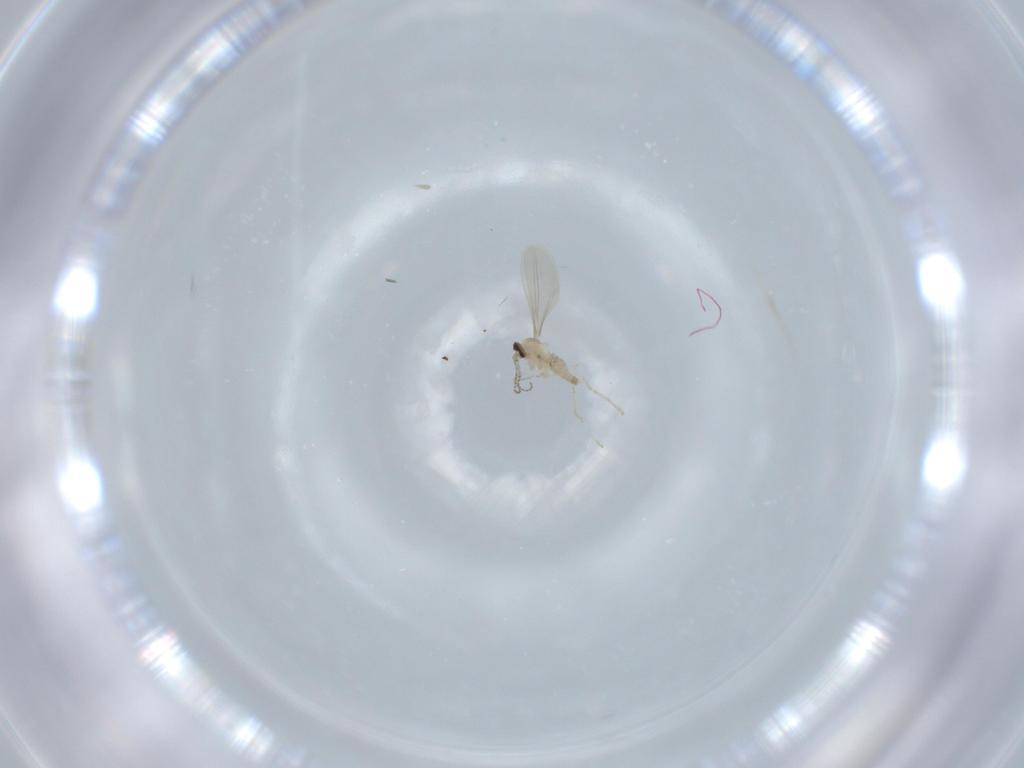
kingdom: Animalia
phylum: Arthropoda
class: Insecta
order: Diptera
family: Cecidomyiidae
